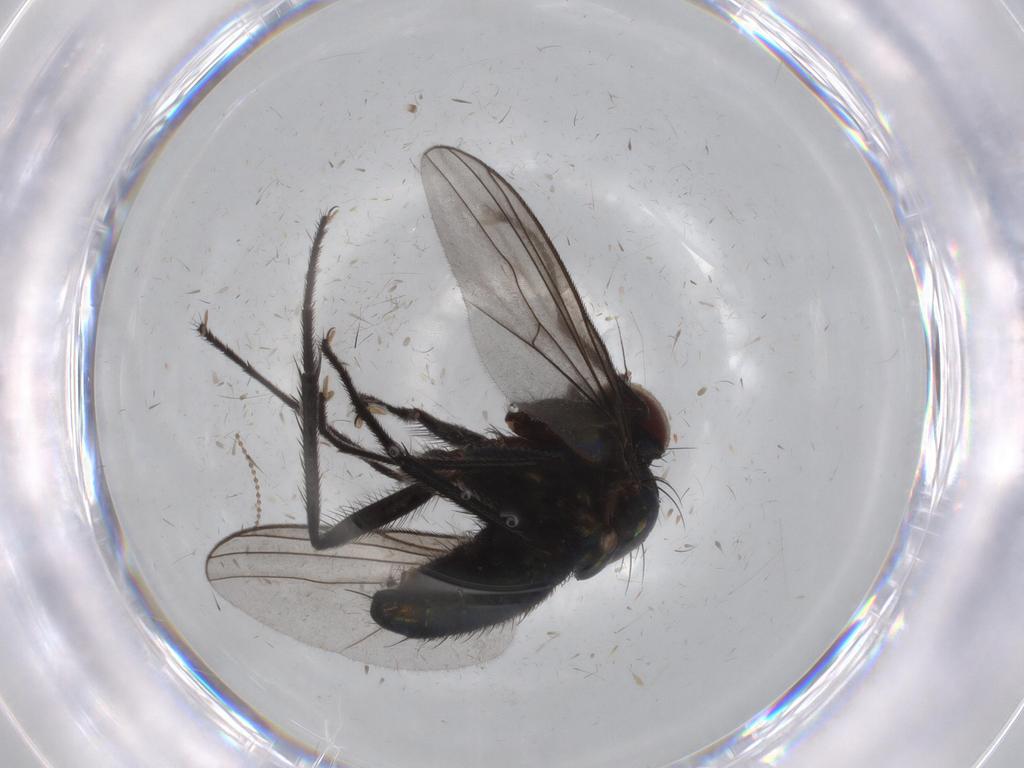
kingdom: Animalia
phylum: Arthropoda
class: Insecta
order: Diptera
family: Dolichopodidae
